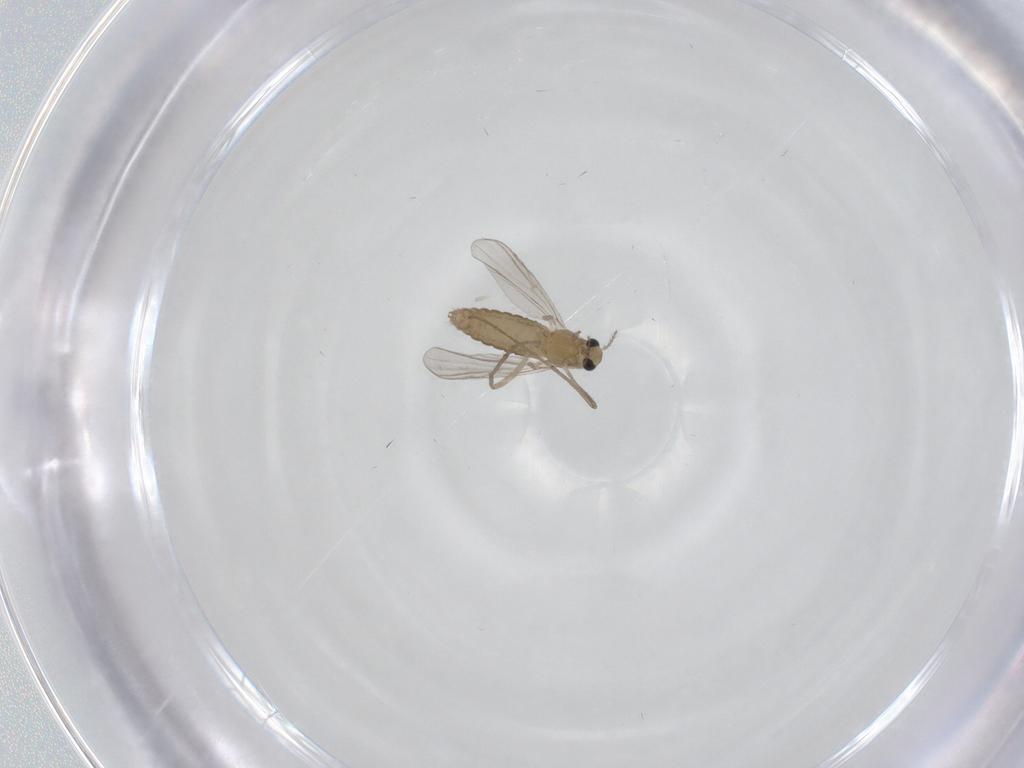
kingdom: Animalia
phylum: Arthropoda
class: Insecta
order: Diptera
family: Chironomidae
